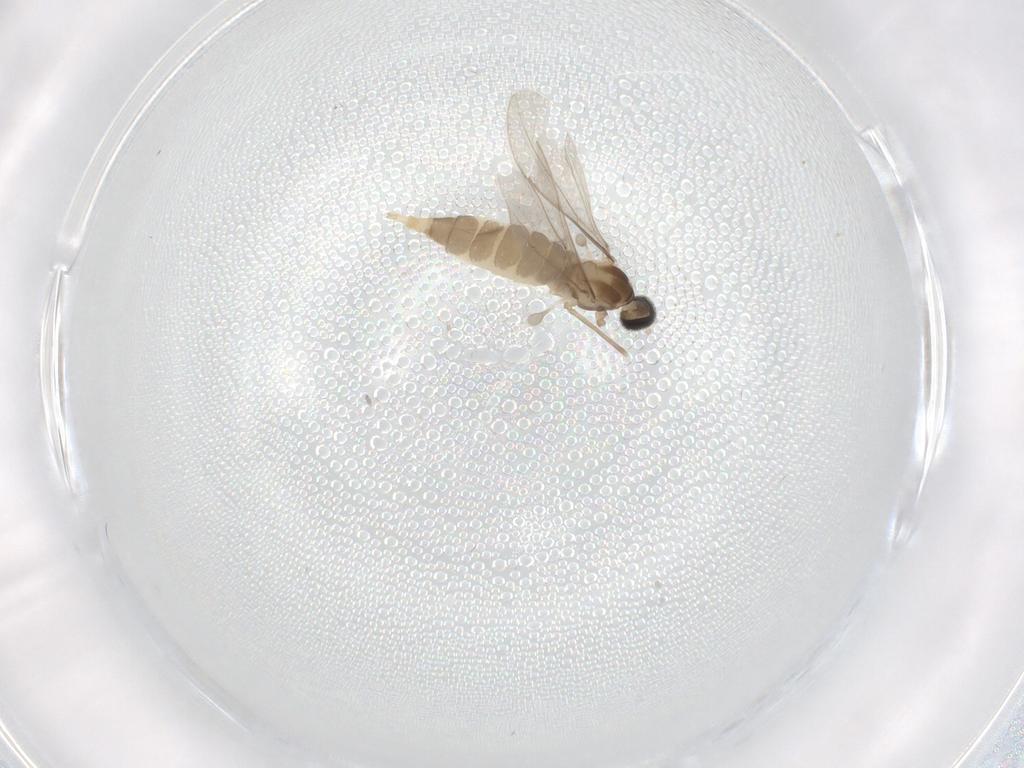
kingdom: Animalia
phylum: Arthropoda
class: Insecta
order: Diptera
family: Cecidomyiidae
